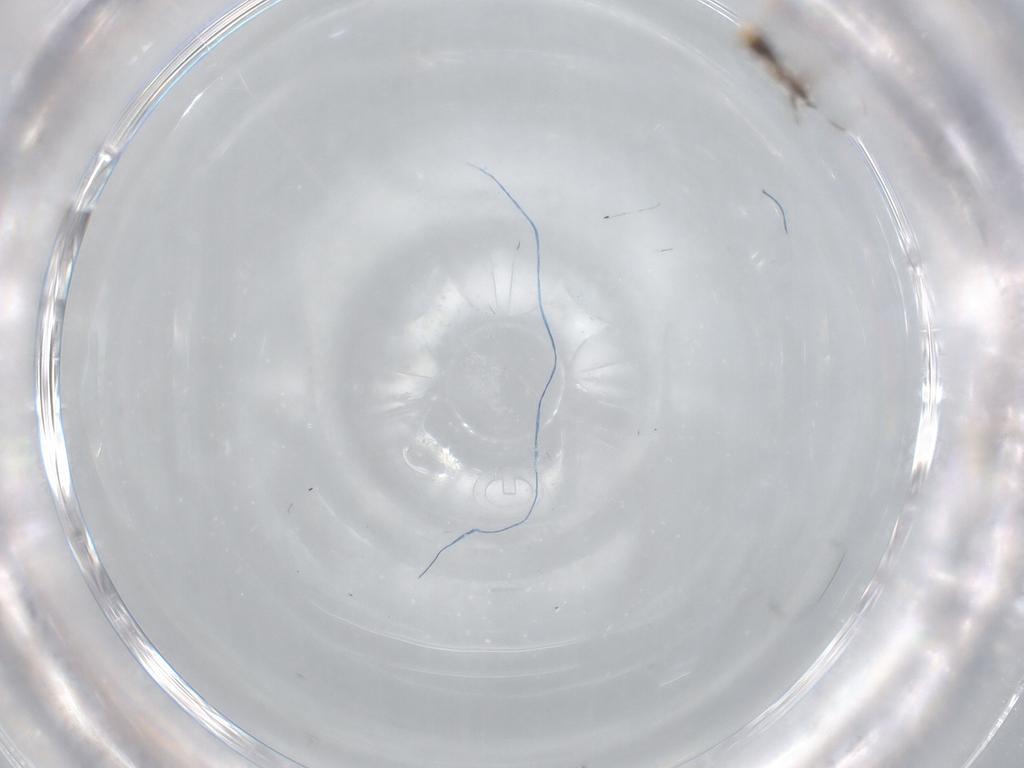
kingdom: Animalia
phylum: Arthropoda
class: Insecta
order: Hymenoptera
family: Formicidae
